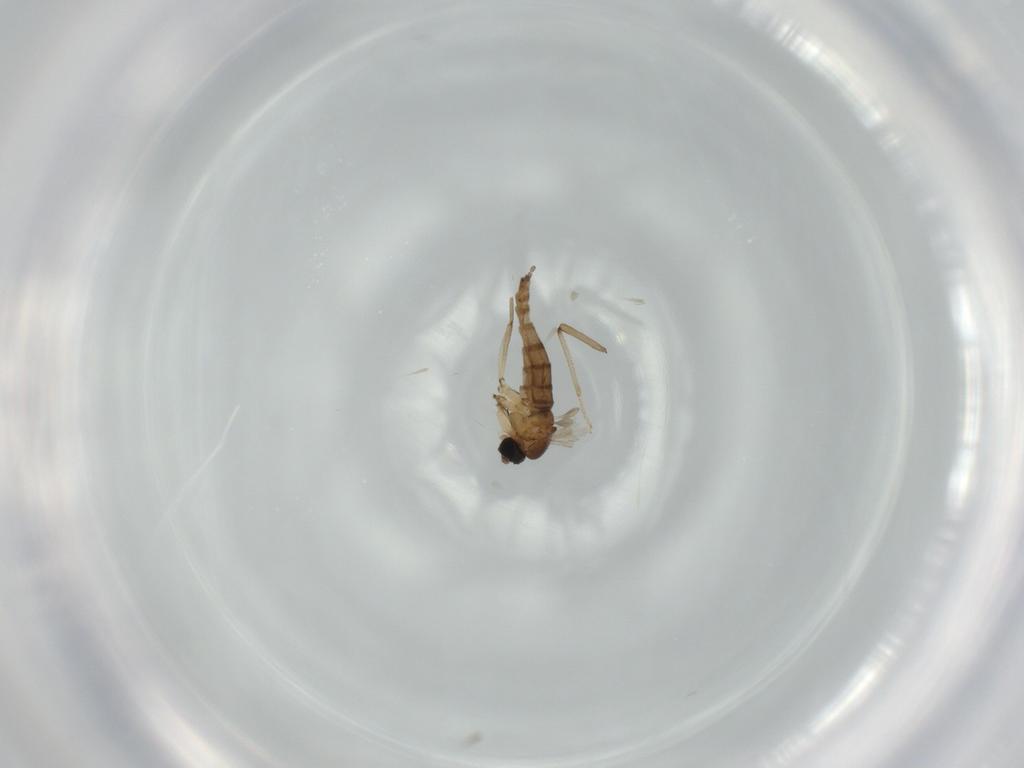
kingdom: Animalia
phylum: Arthropoda
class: Insecta
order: Diptera
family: Sciaridae
